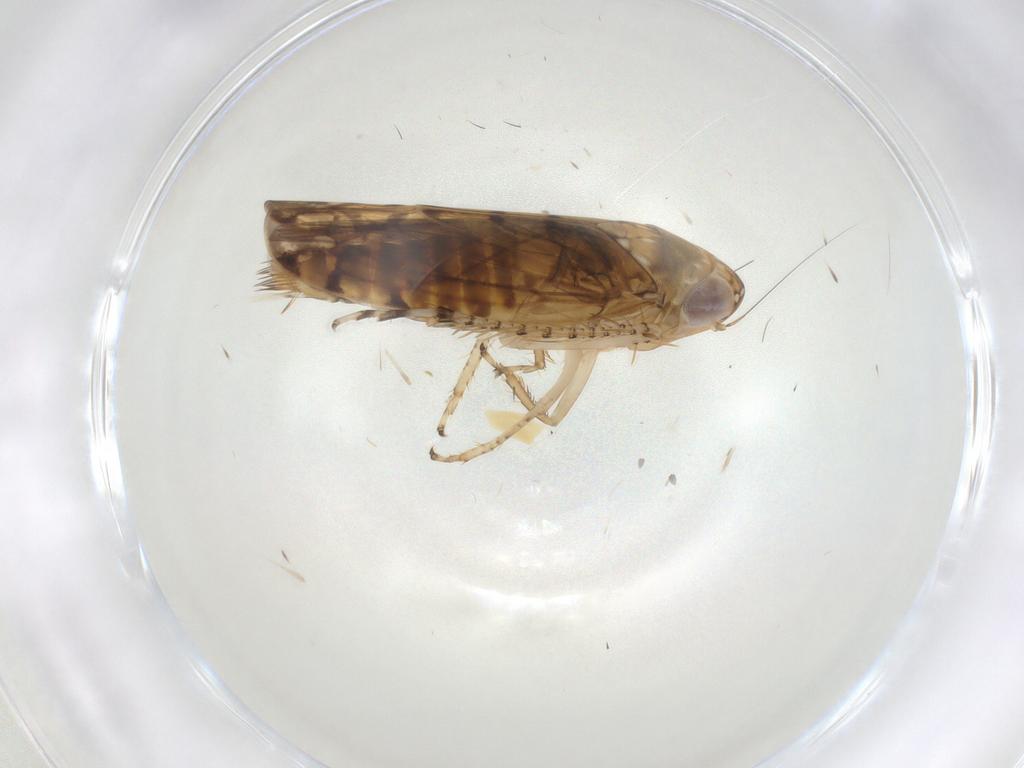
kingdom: Animalia
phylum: Arthropoda
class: Insecta
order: Hemiptera
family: Cicadellidae
